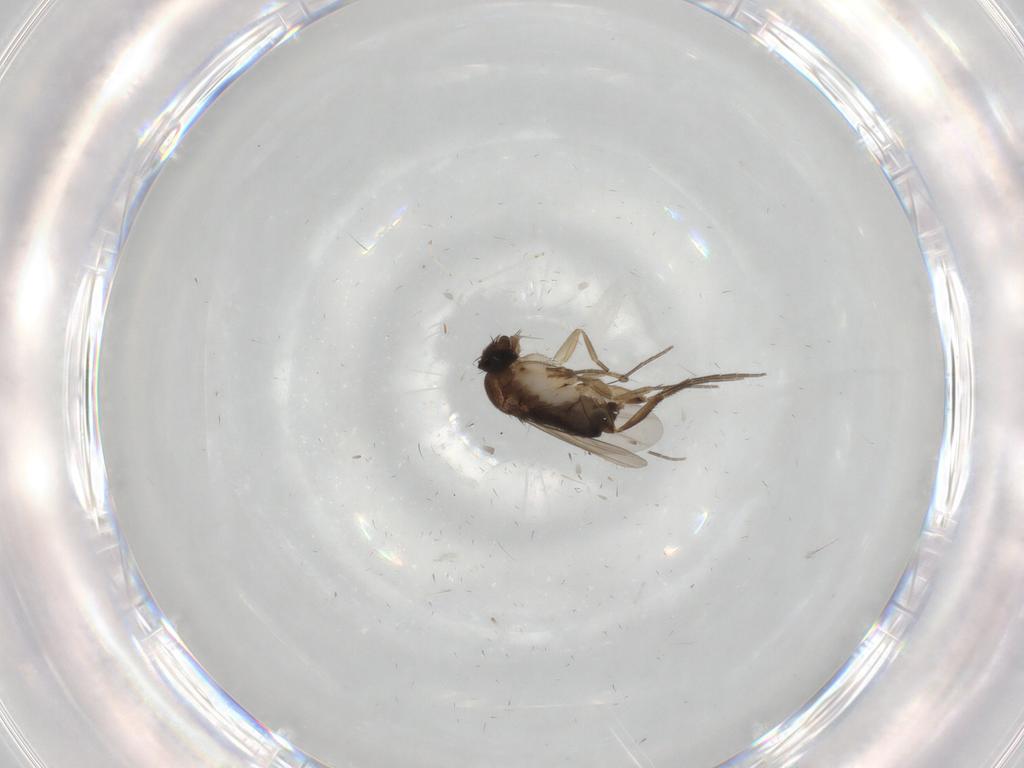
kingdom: Animalia
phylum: Arthropoda
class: Insecta
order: Diptera
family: Phoridae
